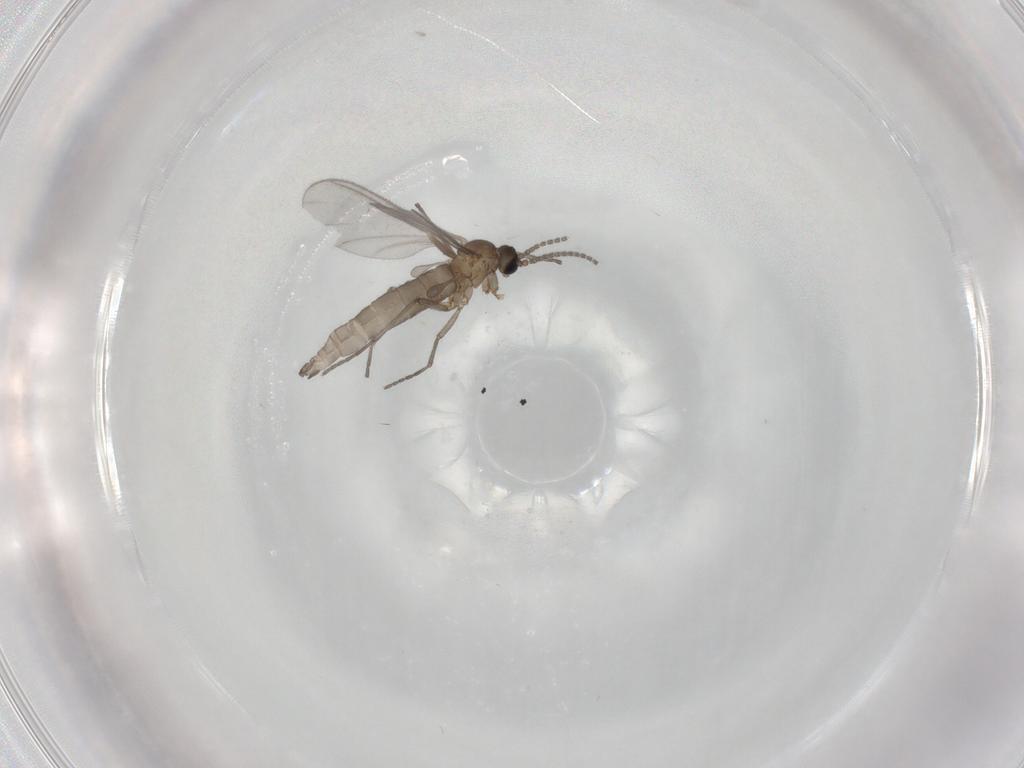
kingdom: Animalia
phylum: Arthropoda
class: Insecta
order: Diptera
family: Sciaridae
